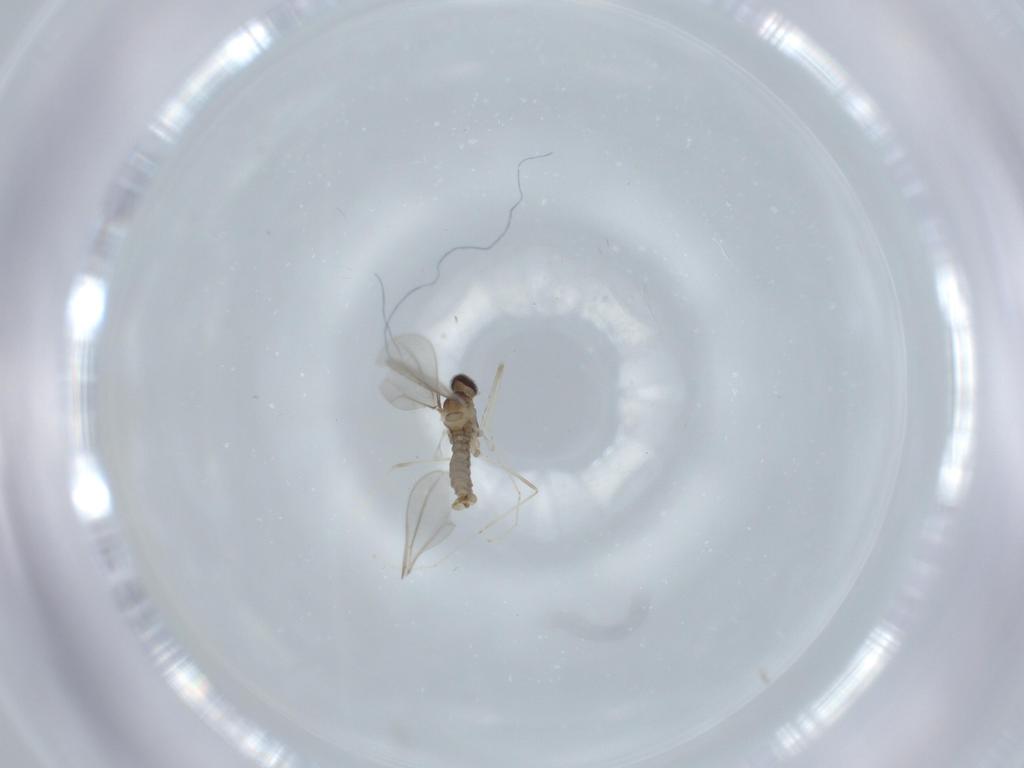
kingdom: Animalia
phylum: Arthropoda
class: Insecta
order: Diptera
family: Cecidomyiidae
